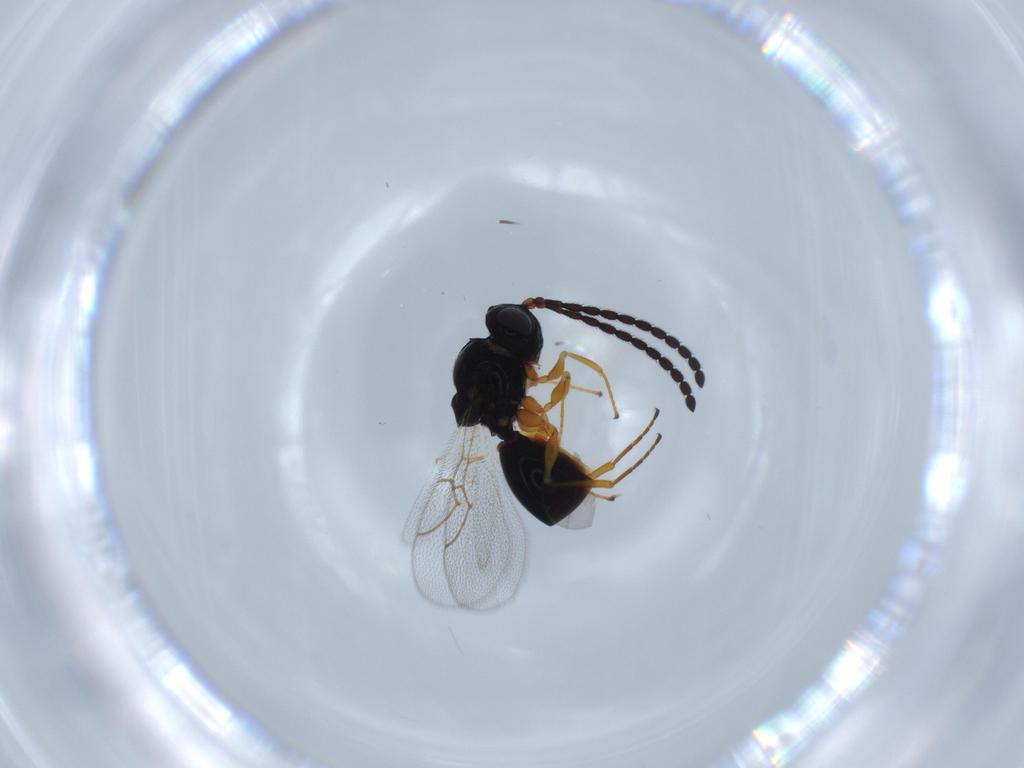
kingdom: Animalia
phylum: Arthropoda
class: Insecta
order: Hymenoptera
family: Figitidae
